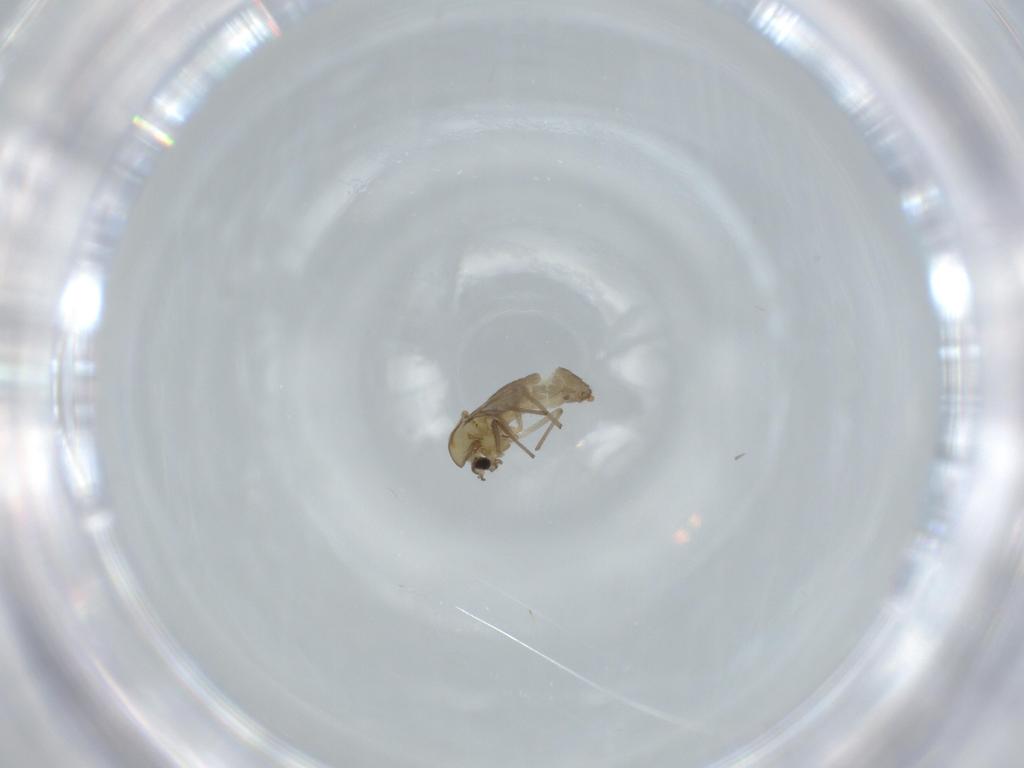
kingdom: Animalia
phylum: Arthropoda
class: Insecta
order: Diptera
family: Chironomidae
